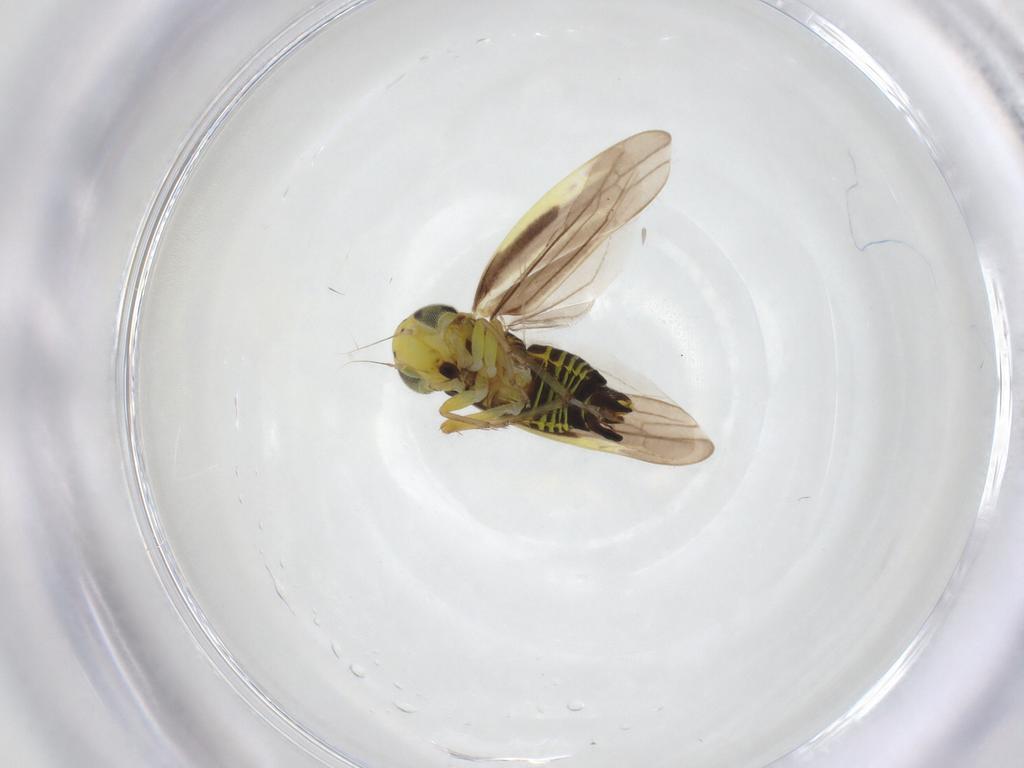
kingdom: Animalia
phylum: Arthropoda
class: Insecta
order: Hemiptera
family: Cicadellidae
